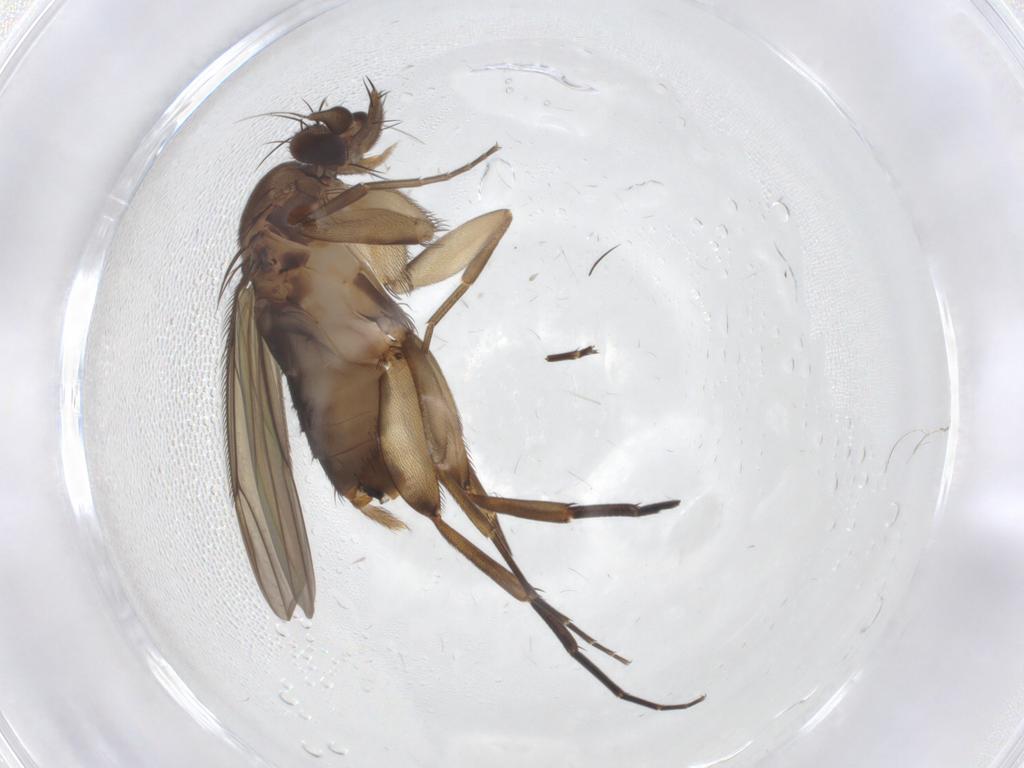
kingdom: Animalia
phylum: Arthropoda
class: Insecta
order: Diptera
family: Phoridae
